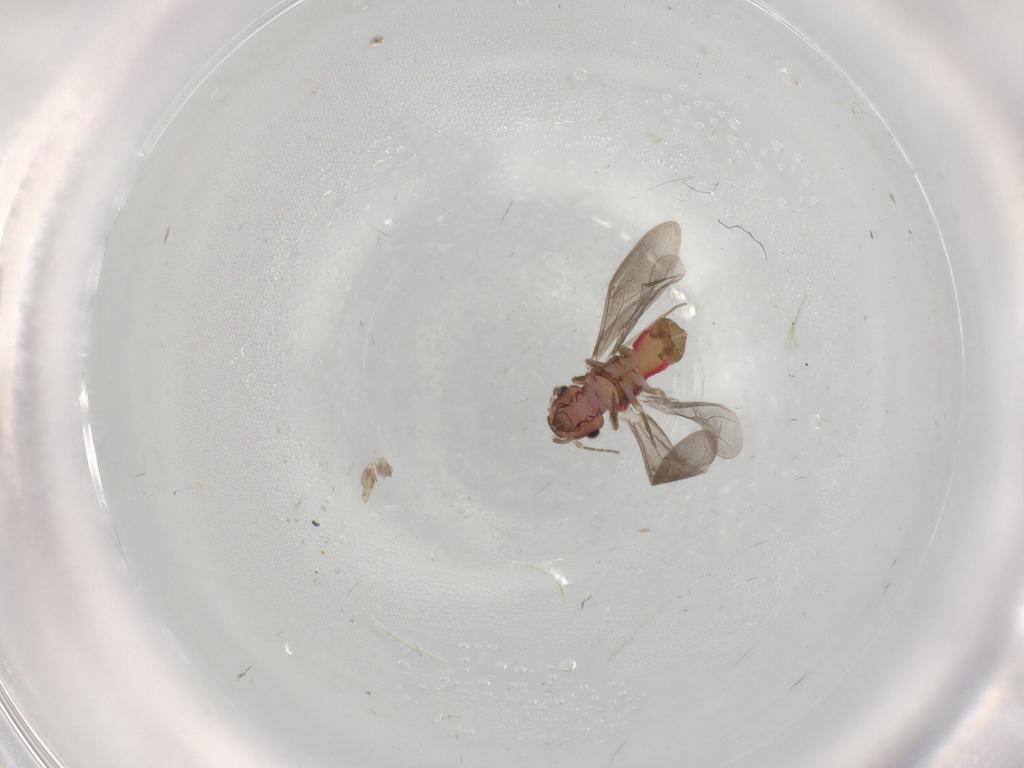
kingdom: Animalia
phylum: Arthropoda
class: Insecta
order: Psocodea
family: Archipsocidae
